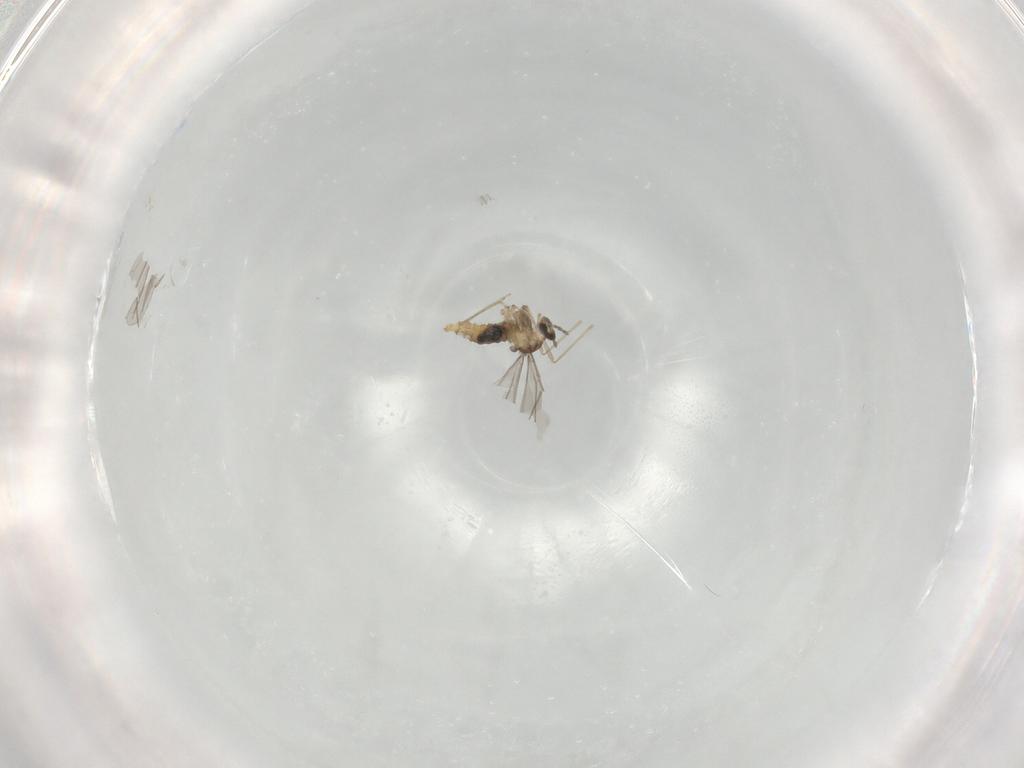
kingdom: Animalia
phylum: Arthropoda
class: Insecta
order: Diptera
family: Cecidomyiidae
